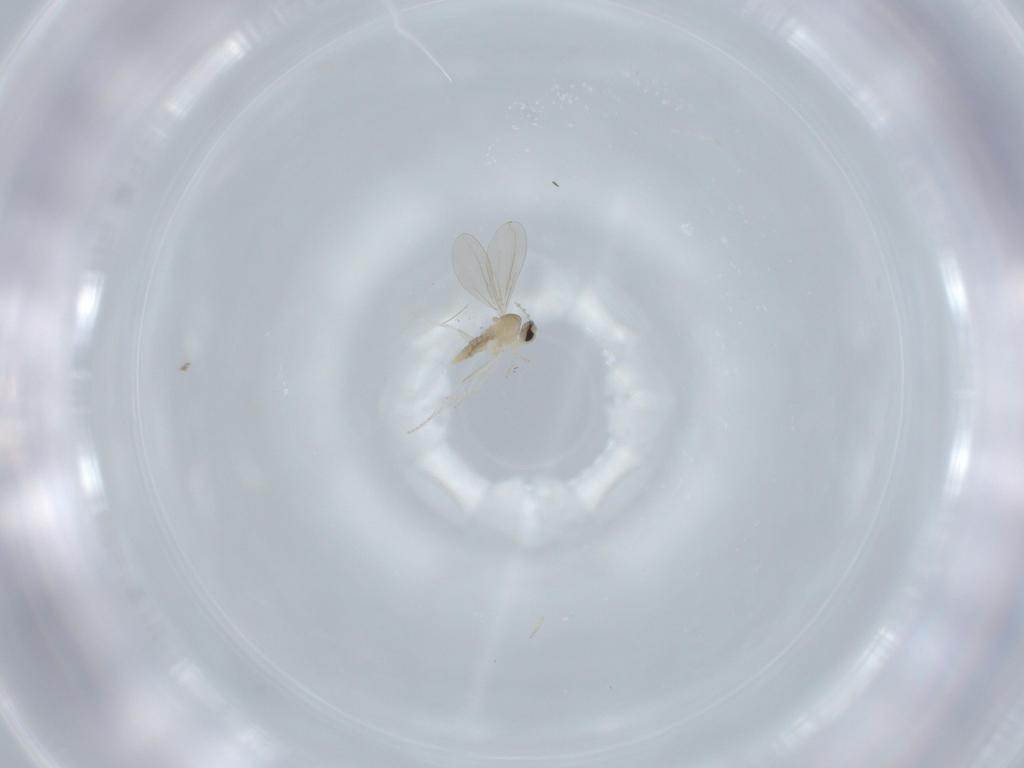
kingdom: Animalia
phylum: Arthropoda
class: Insecta
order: Diptera
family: Cecidomyiidae
